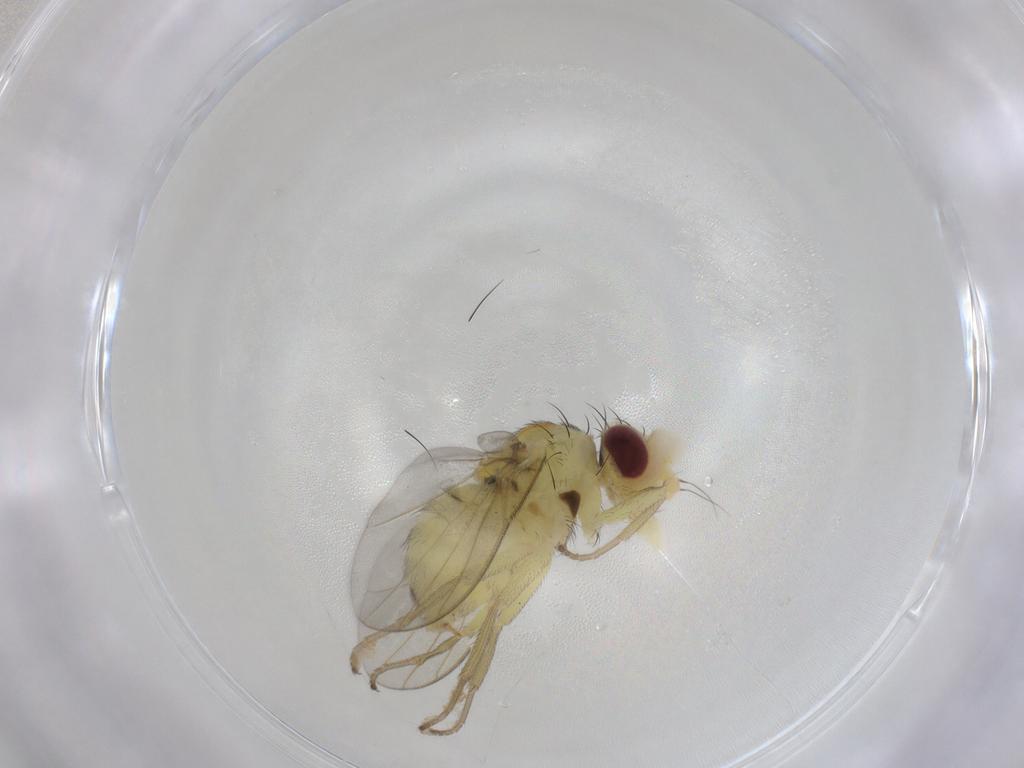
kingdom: Animalia
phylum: Arthropoda
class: Insecta
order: Diptera
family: Agromyzidae
